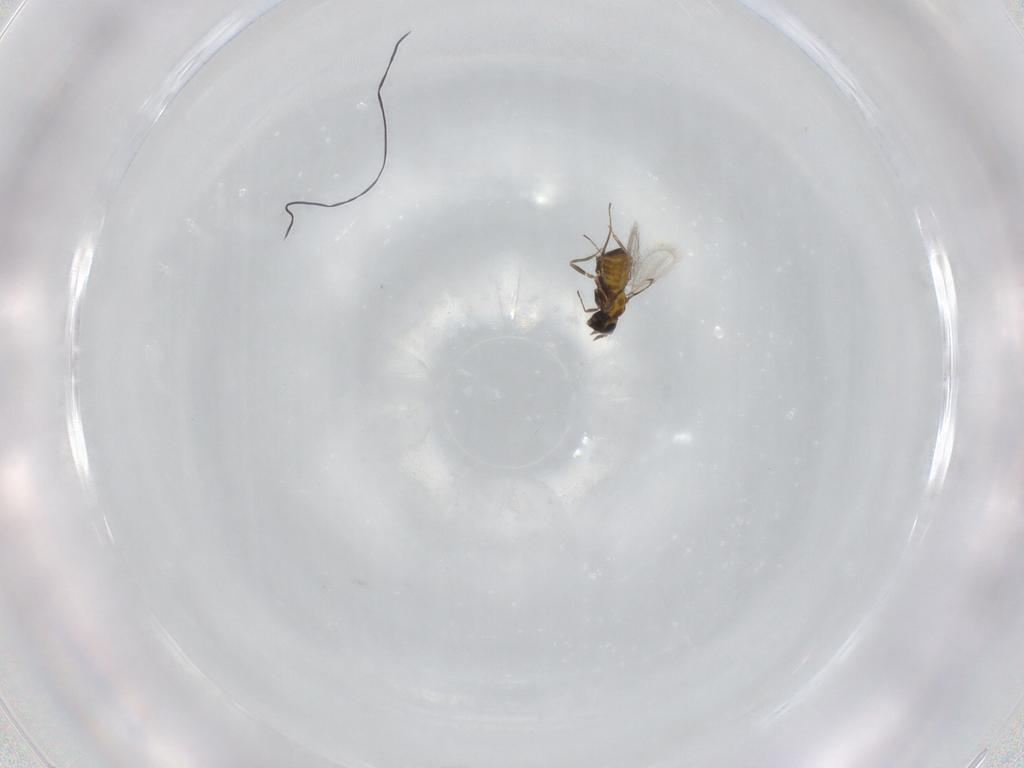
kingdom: Animalia
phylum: Arthropoda
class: Insecta
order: Hymenoptera
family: Trichogrammatidae
